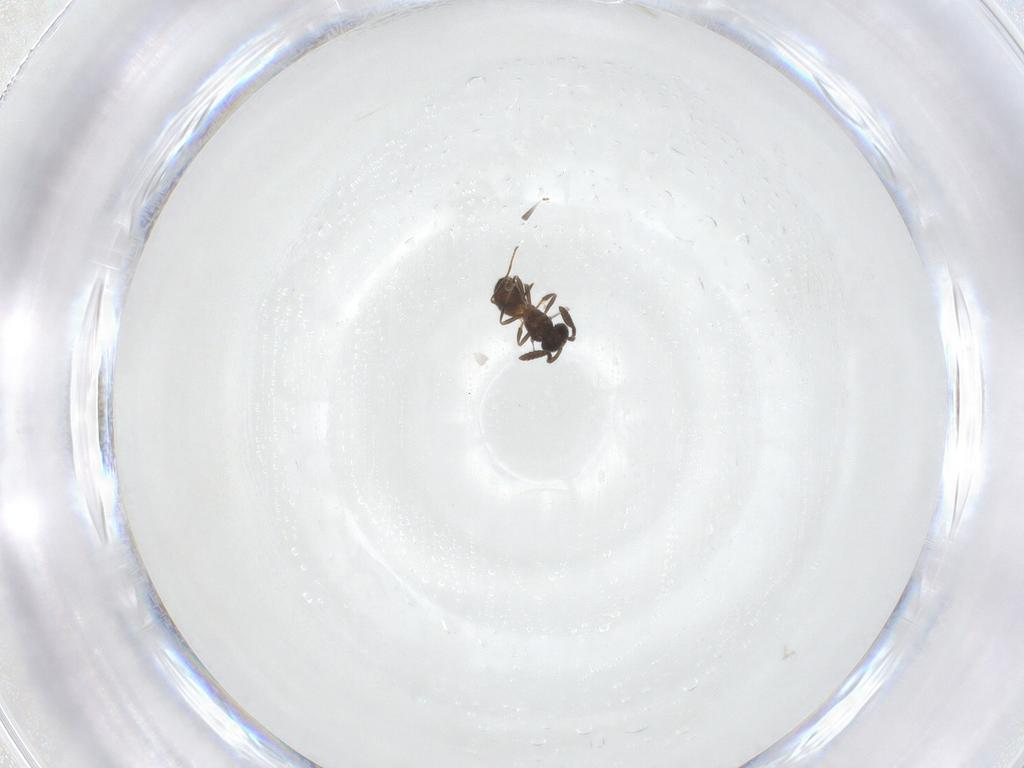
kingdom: Animalia
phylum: Arthropoda
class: Insecta
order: Hymenoptera
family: Scelionidae
